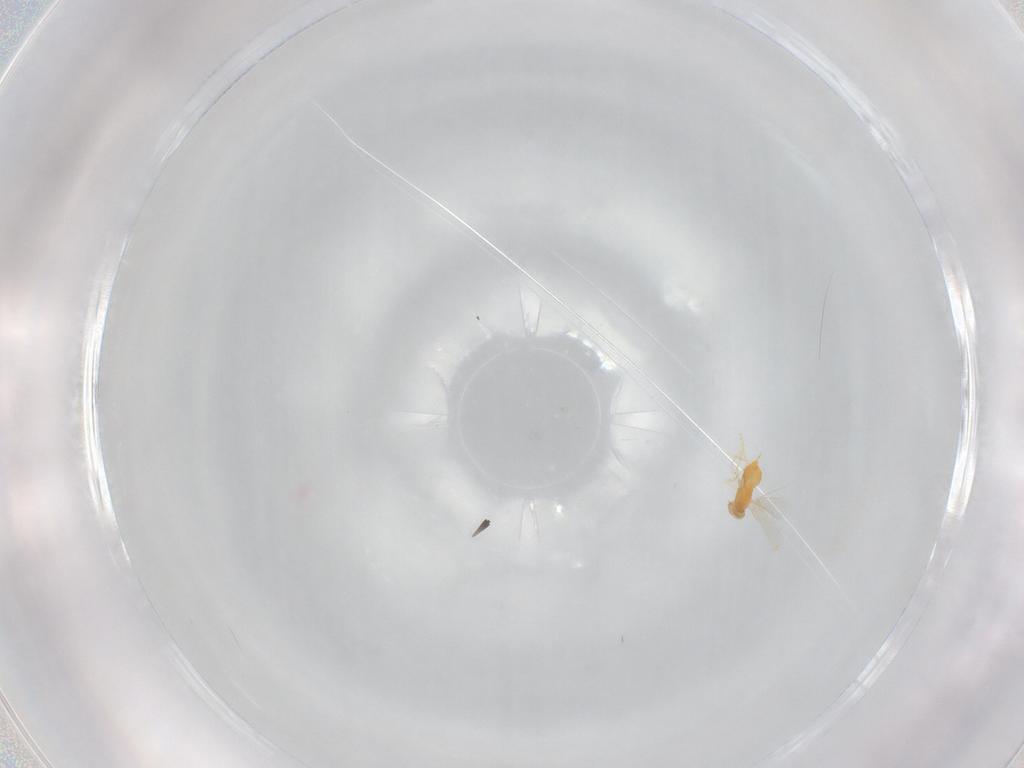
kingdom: Animalia
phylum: Arthropoda
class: Insecta
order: Hymenoptera
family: Aphelinidae
